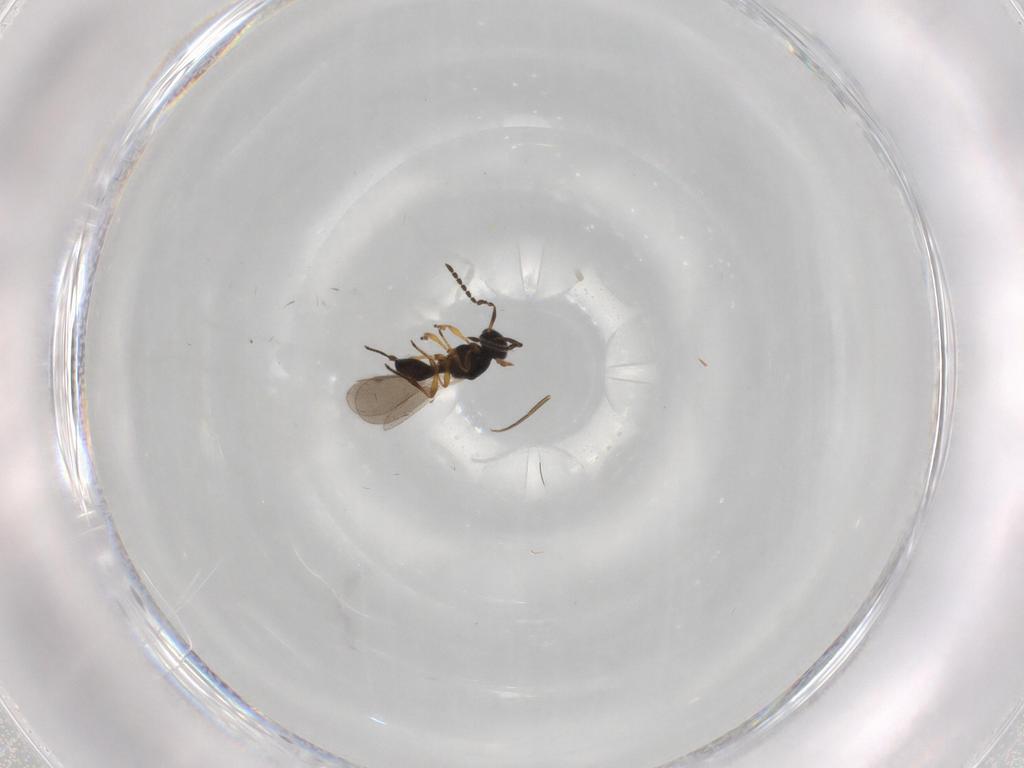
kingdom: Animalia
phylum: Arthropoda
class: Insecta
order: Hymenoptera
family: Platygastridae
